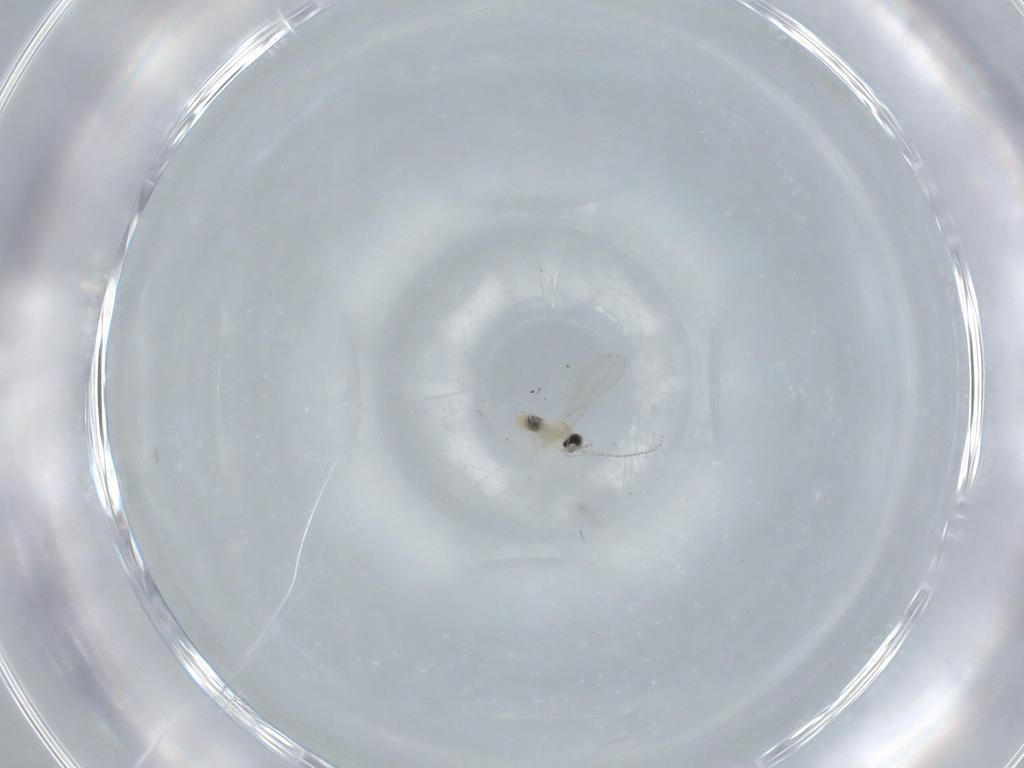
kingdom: Animalia
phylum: Arthropoda
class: Insecta
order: Diptera
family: Cecidomyiidae
